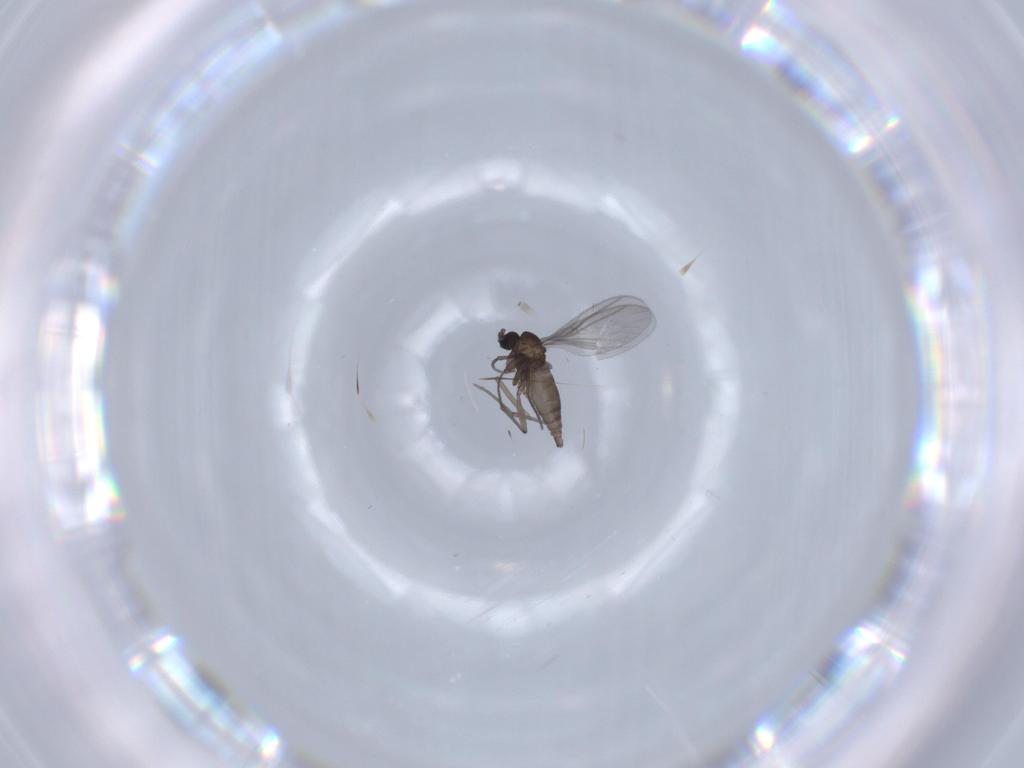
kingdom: Animalia
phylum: Arthropoda
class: Insecta
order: Diptera
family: Sciaridae
